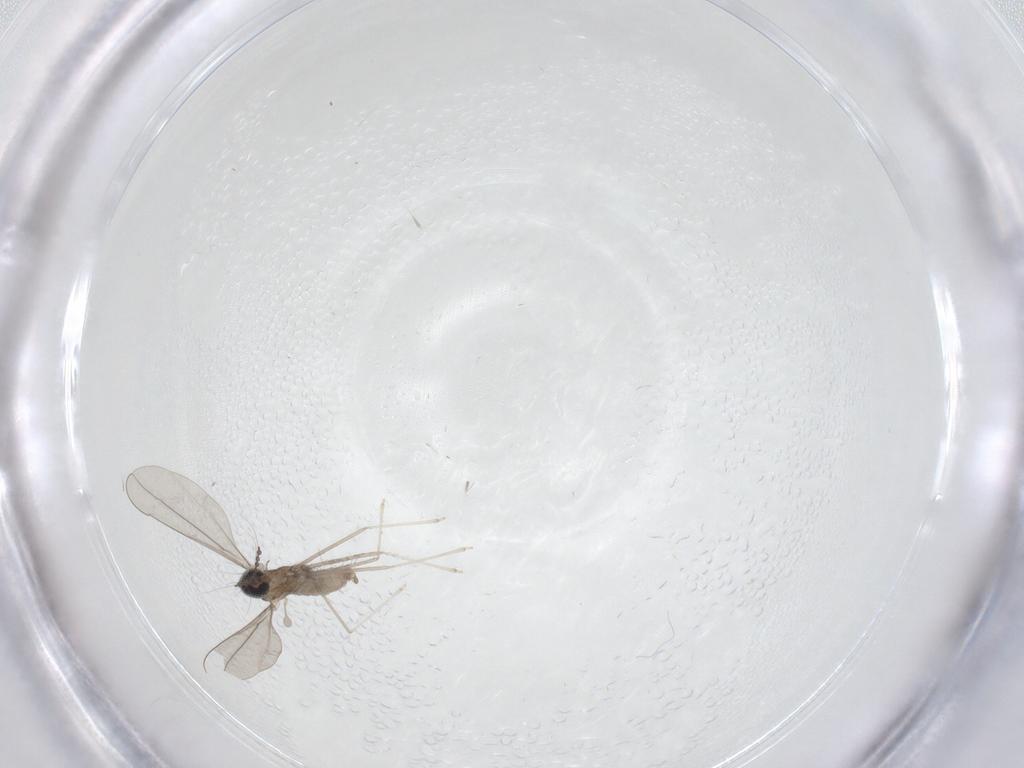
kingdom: Animalia
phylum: Arthropoda
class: Insecta
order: Diptera
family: Cecidomyiidae
